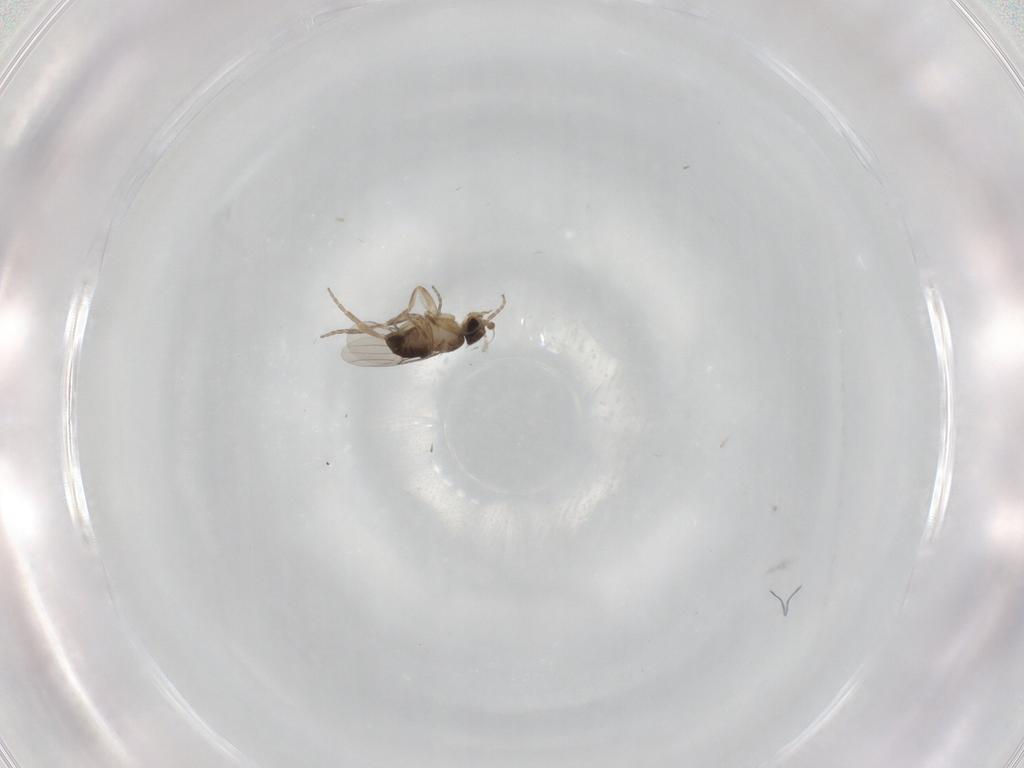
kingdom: Animalia
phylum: Arthropoda
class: Insecta
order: Diptera
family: Phoridae
